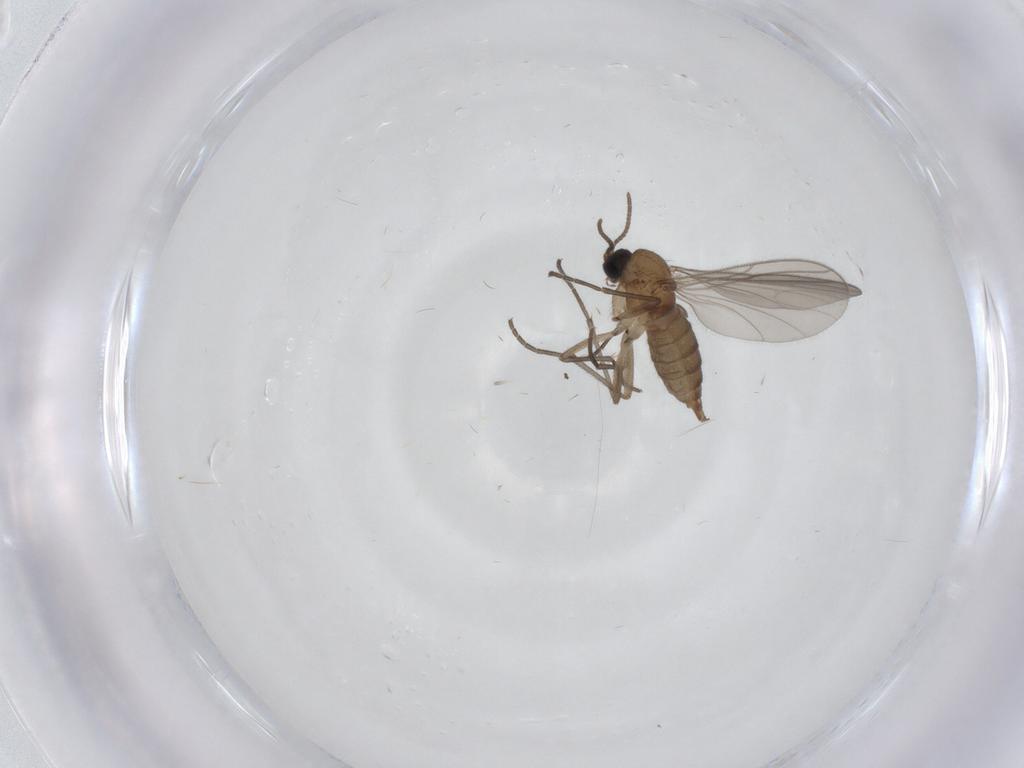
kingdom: Animalia
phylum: Arthropoda
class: Insecta
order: Diptera
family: Sciaridae
